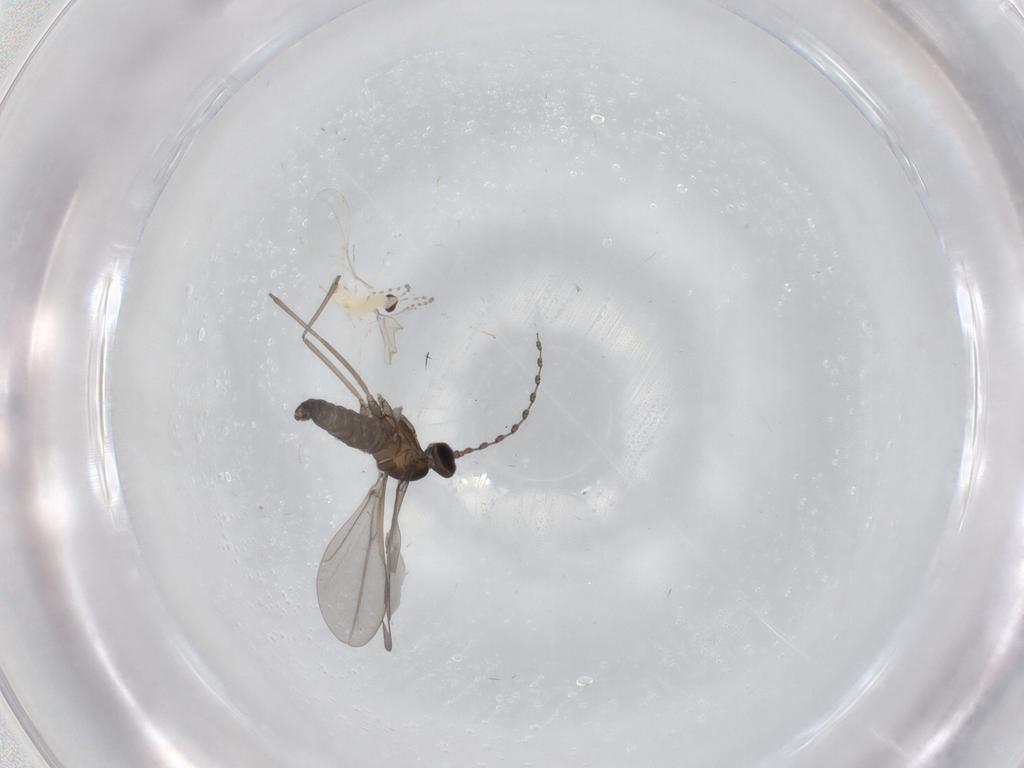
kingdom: Animalia
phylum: Arthropoda
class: Insecta
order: Diptera
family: Cecidomyiidae
